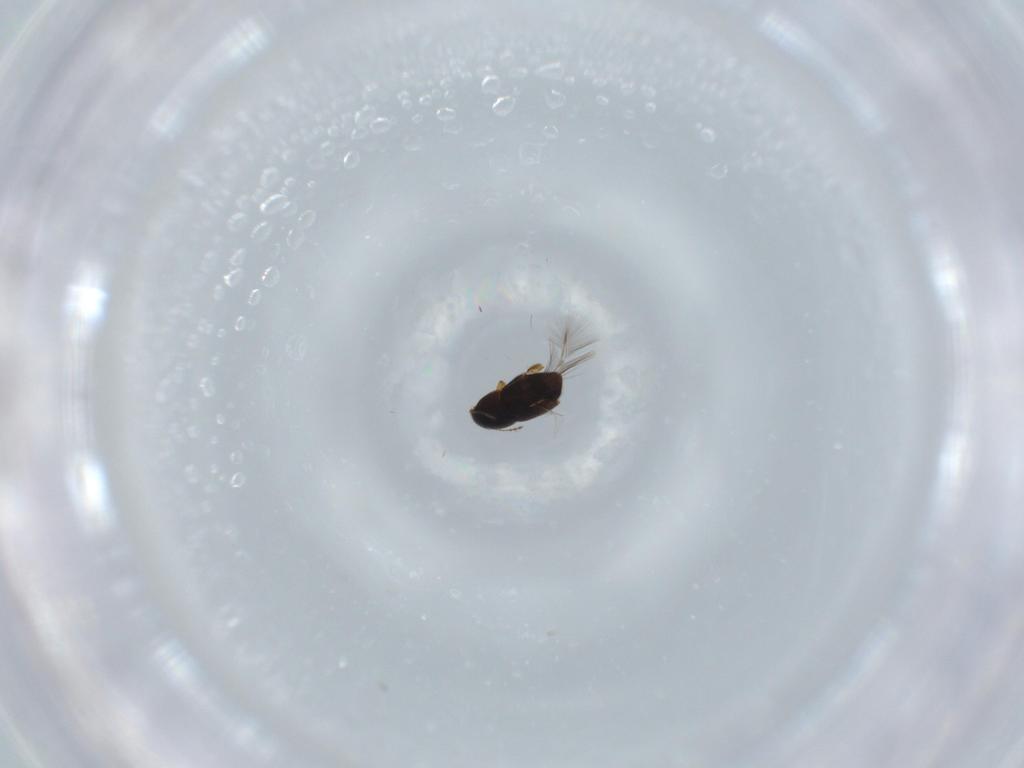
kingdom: Animalia
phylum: Arthropoda
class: Insecta
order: Coleoptera
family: Ptiliidae
